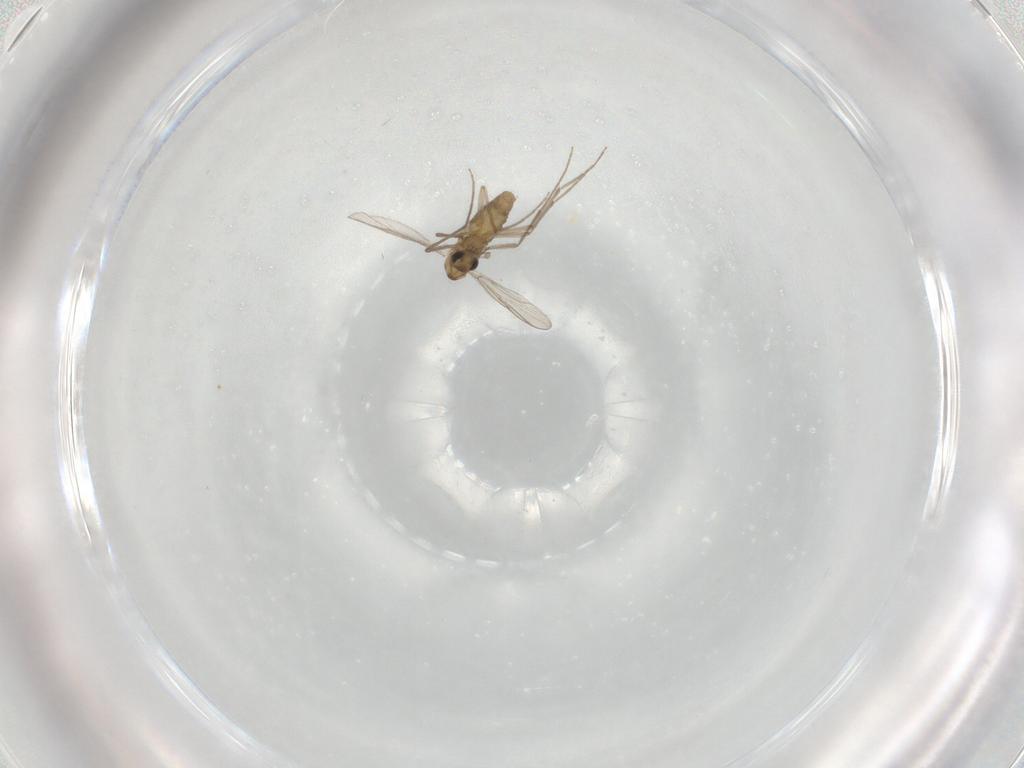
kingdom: Animalia
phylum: Arthropoda
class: Insecta
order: Diptera
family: Chironomidae
